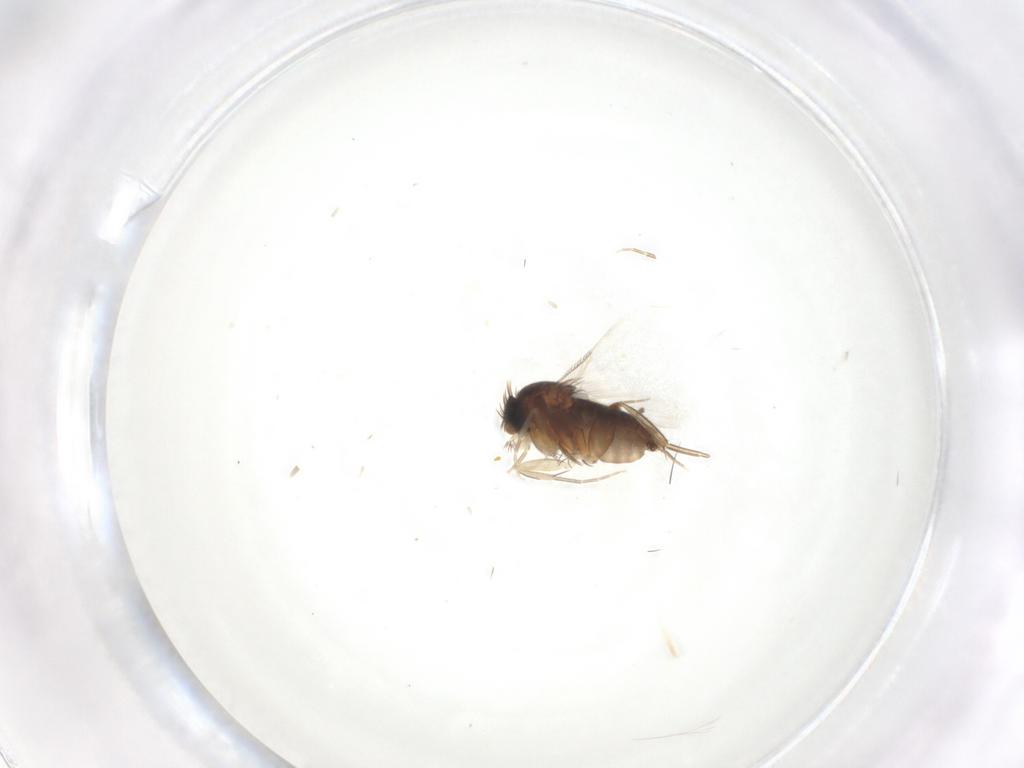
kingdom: Animalia
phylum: Arthropoda
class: Insecta
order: Diptera
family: Phoridae
